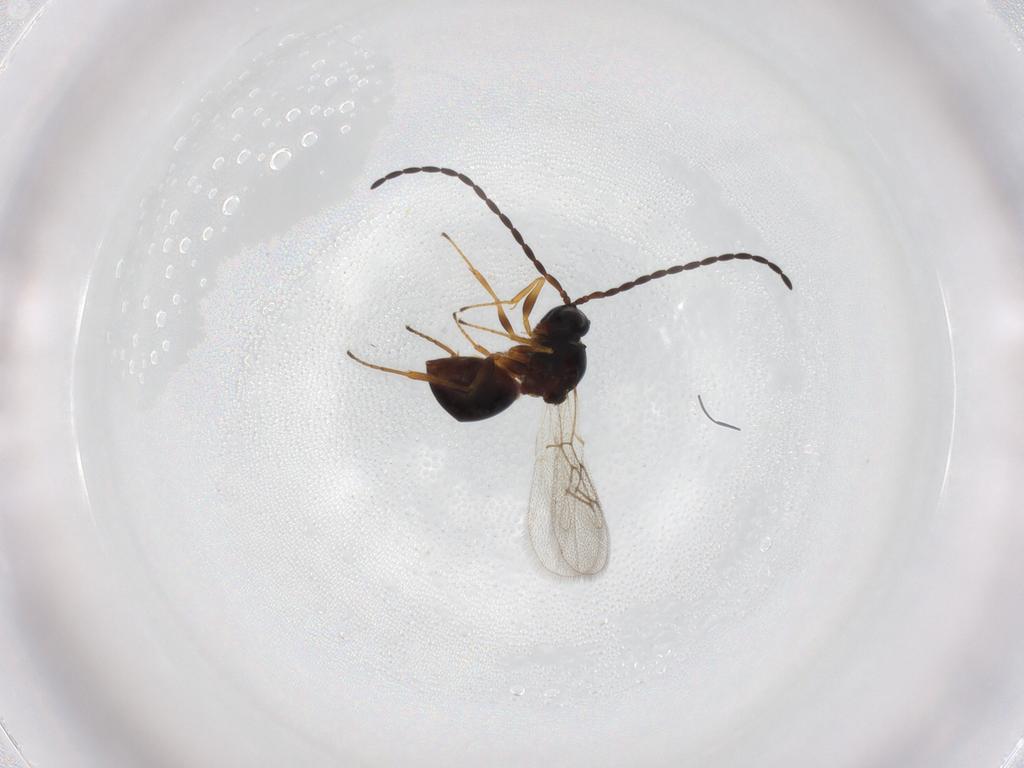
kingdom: Animalia
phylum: Arthropoda
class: Insecta
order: Hymenoptera
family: Figitidae
